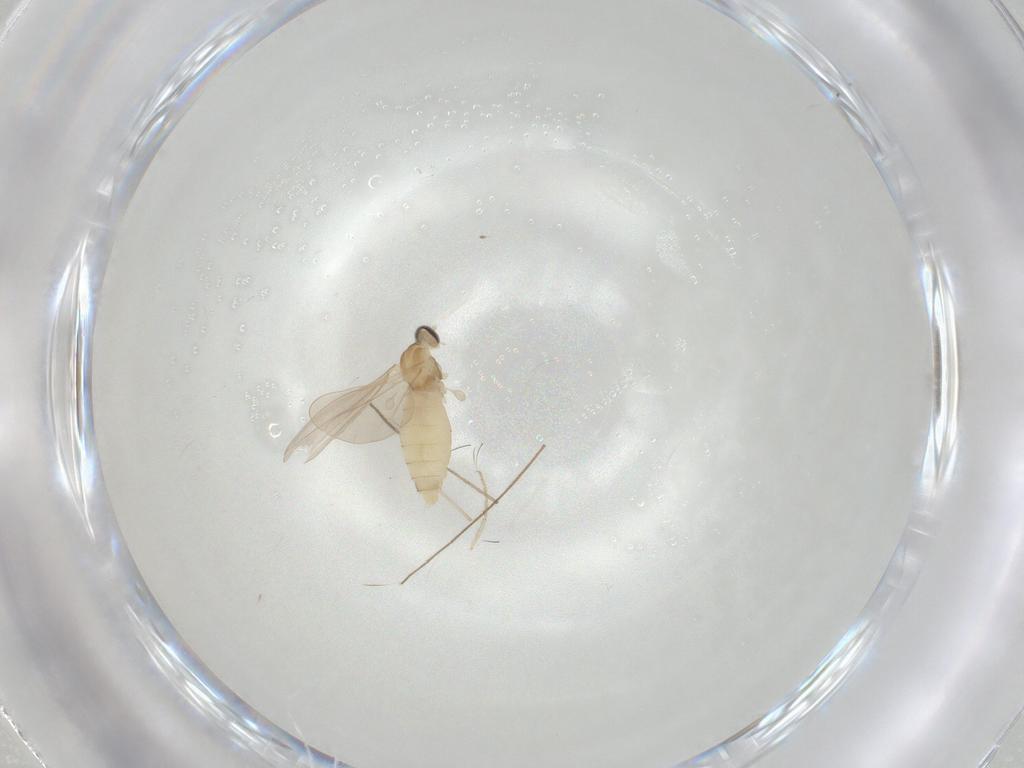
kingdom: Animalia
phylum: Arthropoda
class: Insecta
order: Diptera
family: Cecidomyiidae
